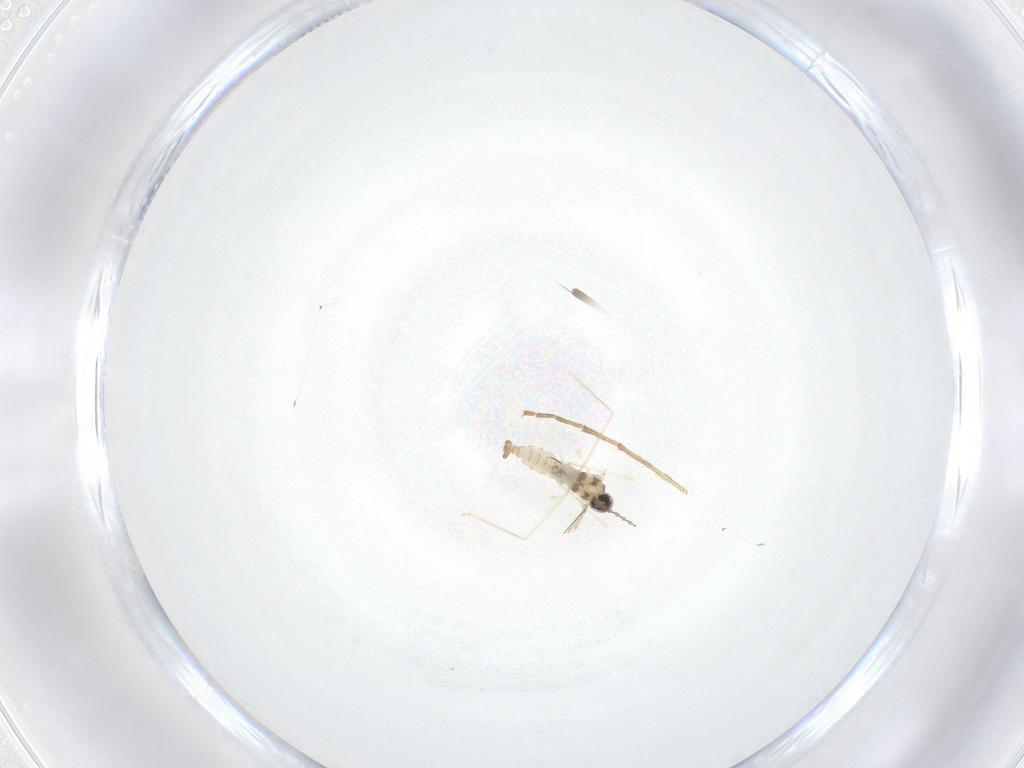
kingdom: Animalia
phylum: Arthropoda
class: Insecta
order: Diptera
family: Cecidomyiidae
